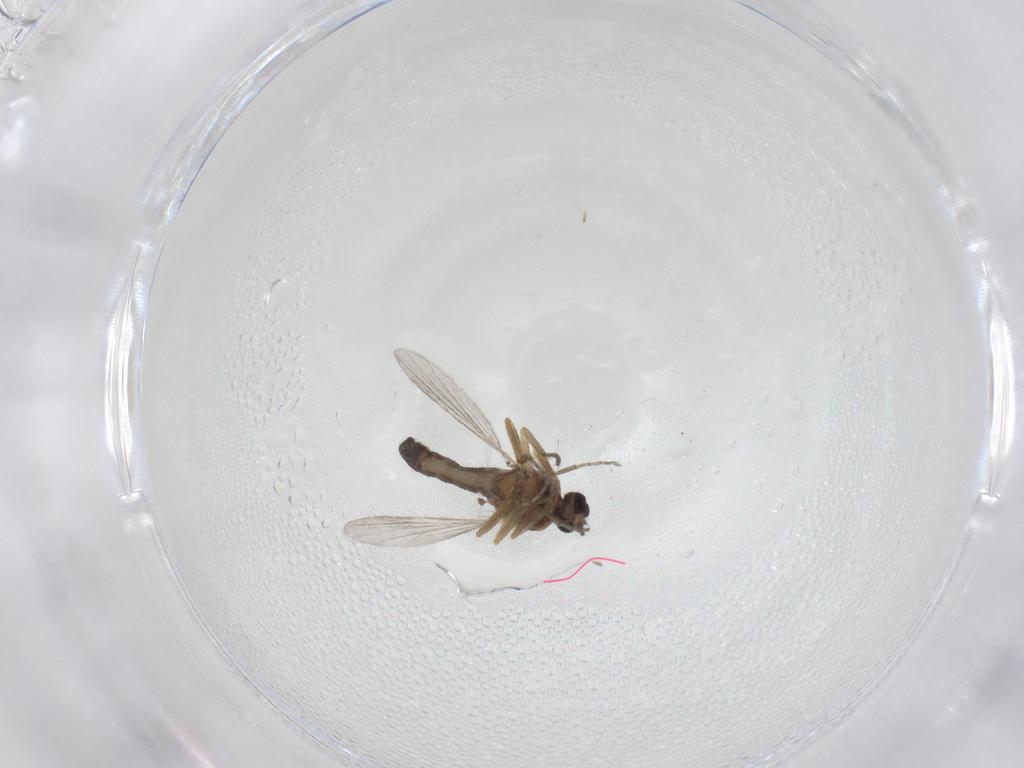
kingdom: Animalia
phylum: Arthropoda
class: Insecta
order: Diptera
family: Ceratopogonidae
